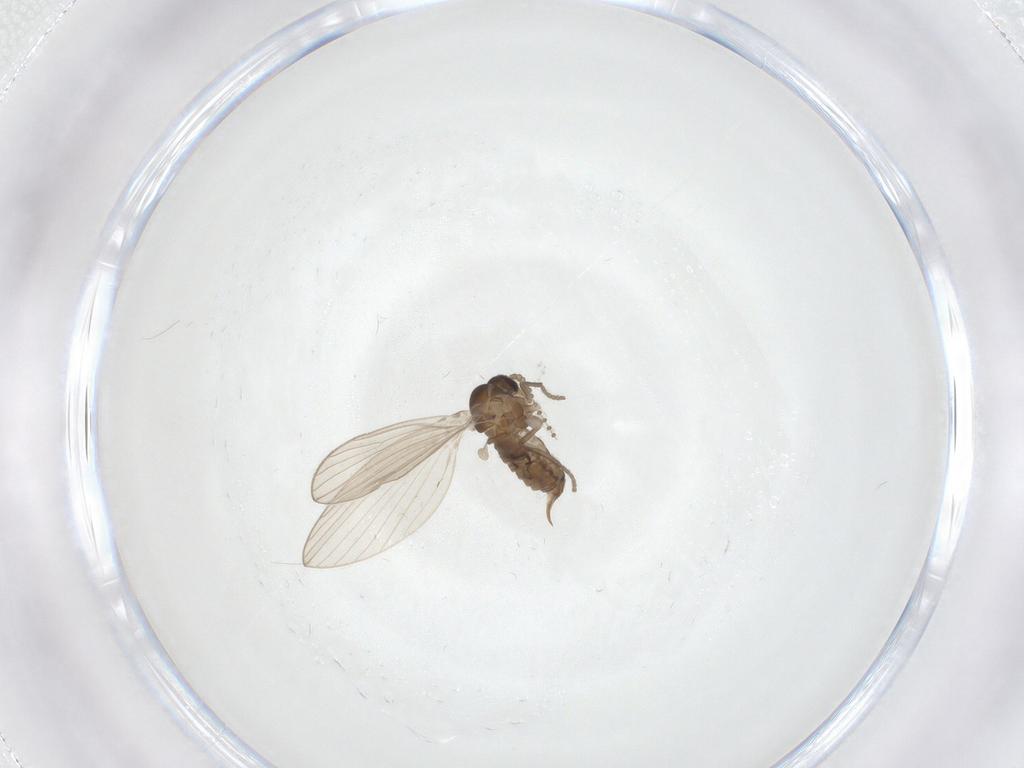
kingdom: Animalia
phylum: Arthropoda
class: Insecta
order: Diptera
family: Psychodidae
